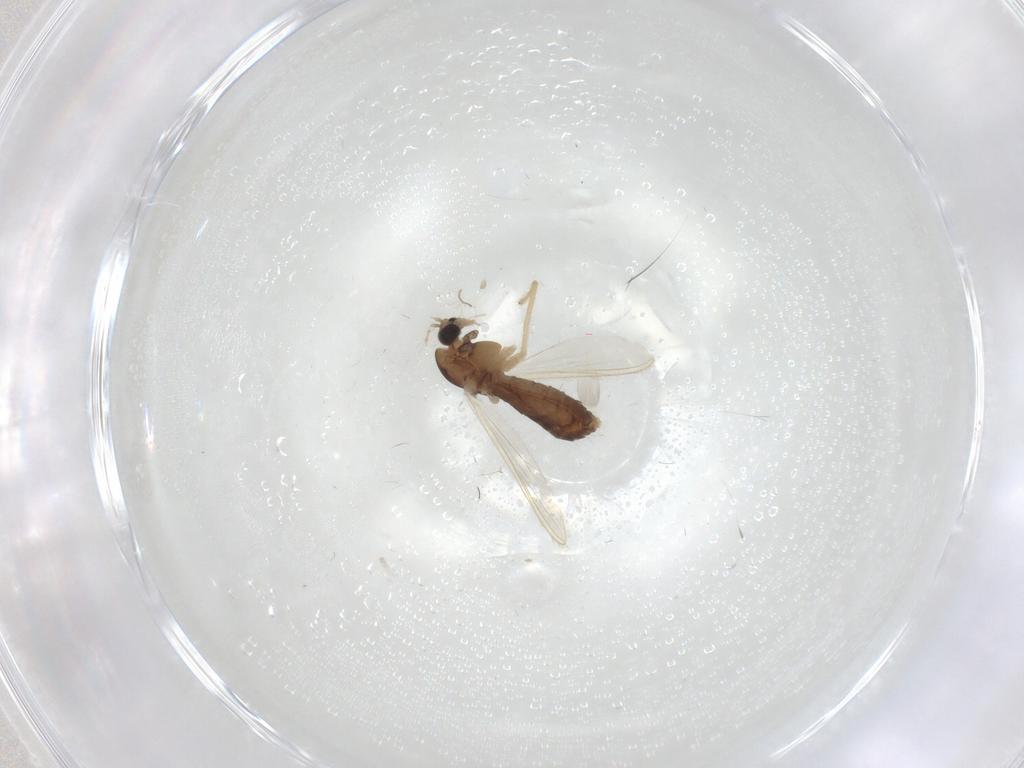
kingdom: Animalia
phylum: Arthropoda
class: Insecta
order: Diptera
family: Chironomidae
